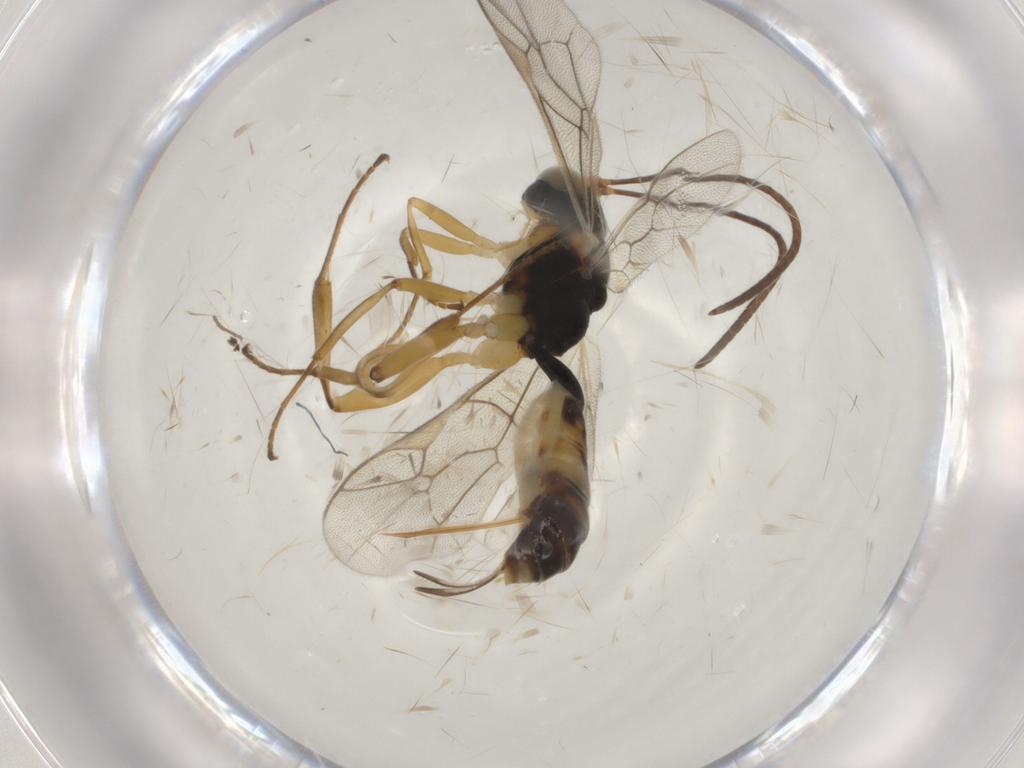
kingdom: Animalia
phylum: Arthropoda
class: Insecta
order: Hymenoptera
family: Ichneumonidae
